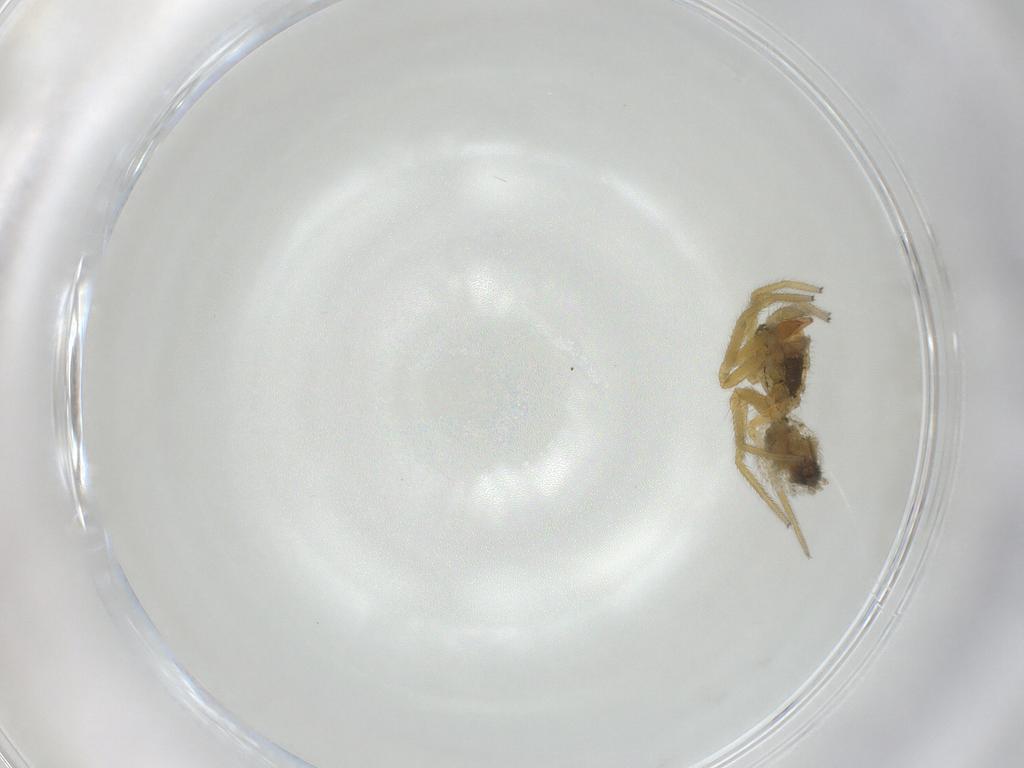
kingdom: Animalia
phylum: Arthropoda
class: Arachnida
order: Araneae
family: Linyphiidae
